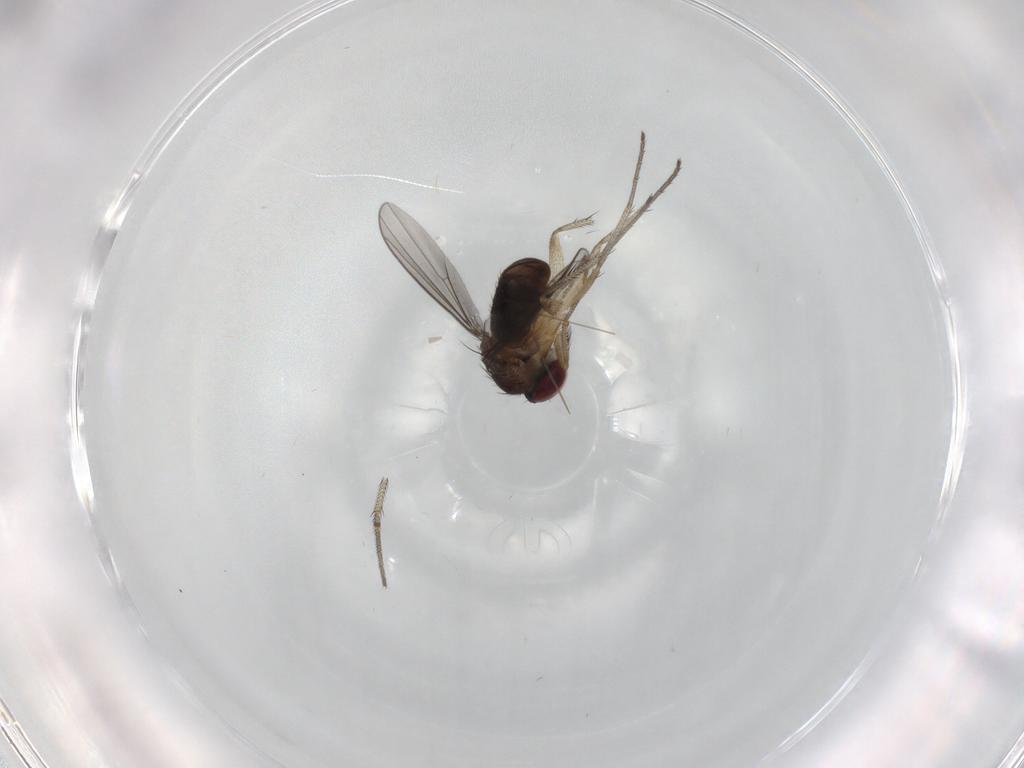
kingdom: Animalia
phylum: Arthropoda
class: Insecta
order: Diptera
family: Dolichopodidae
